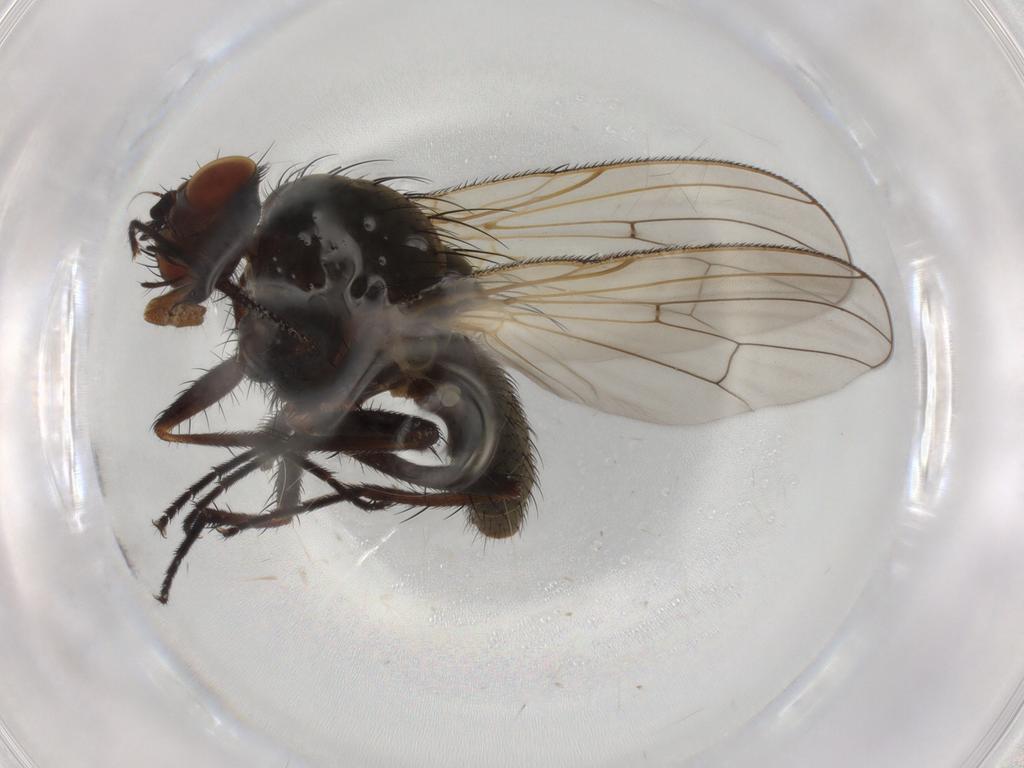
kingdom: Animalia
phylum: Arthropoda
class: Insecta
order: Diptera
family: Anthomyiidae
